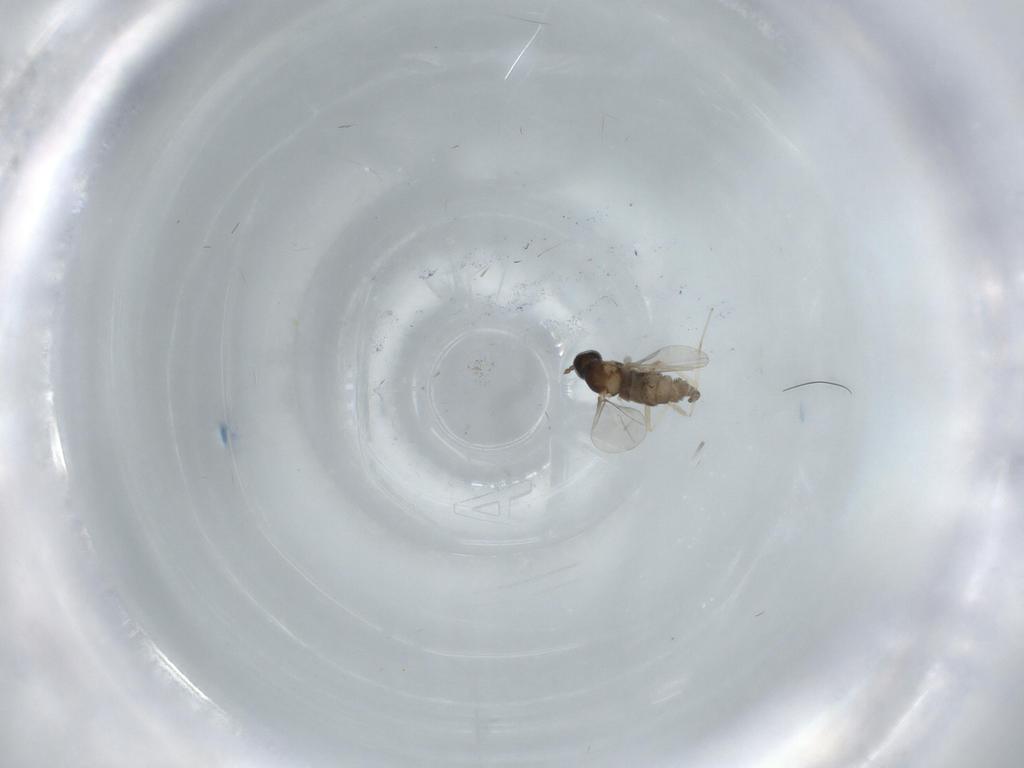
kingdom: Animalia
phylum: Arthropoda
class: Insecta
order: Diptera
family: Cecidomyiidae
